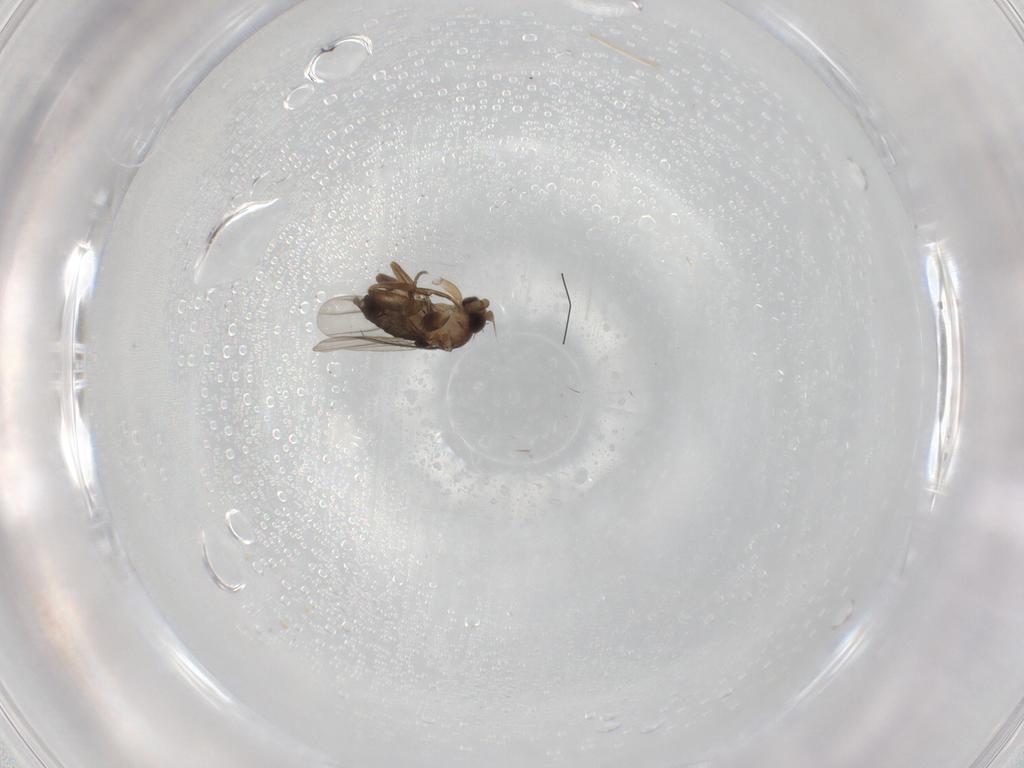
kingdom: Animalia
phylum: Arthropoda
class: Insecta
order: Diptera
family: Phoridae
